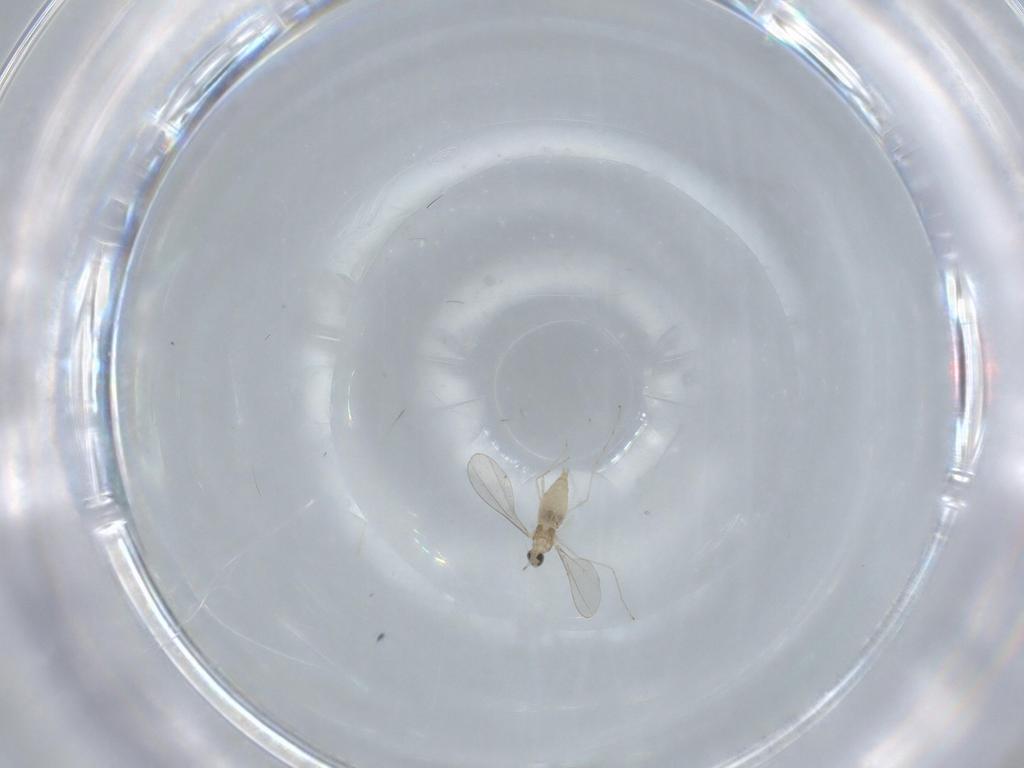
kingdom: Animalia
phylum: Arthropoda
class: Insecta
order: Diptera
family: Cecidomyiidae
